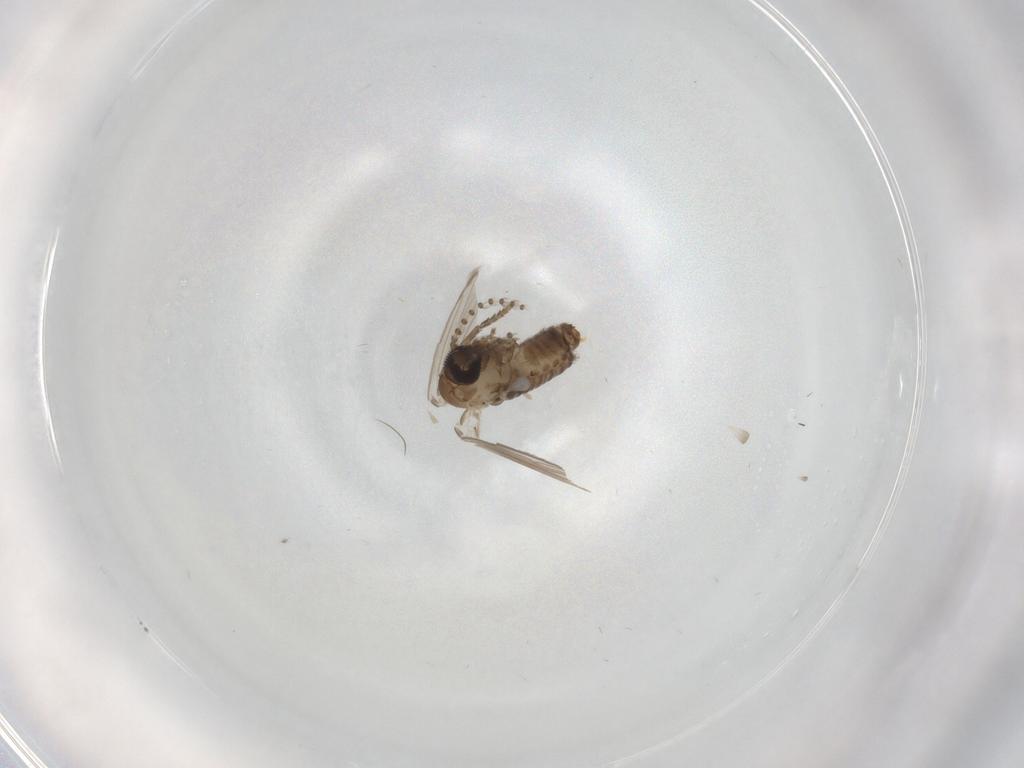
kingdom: Animalia
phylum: Arthropoda
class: Insecta
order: Diptera
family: Psychodidae
